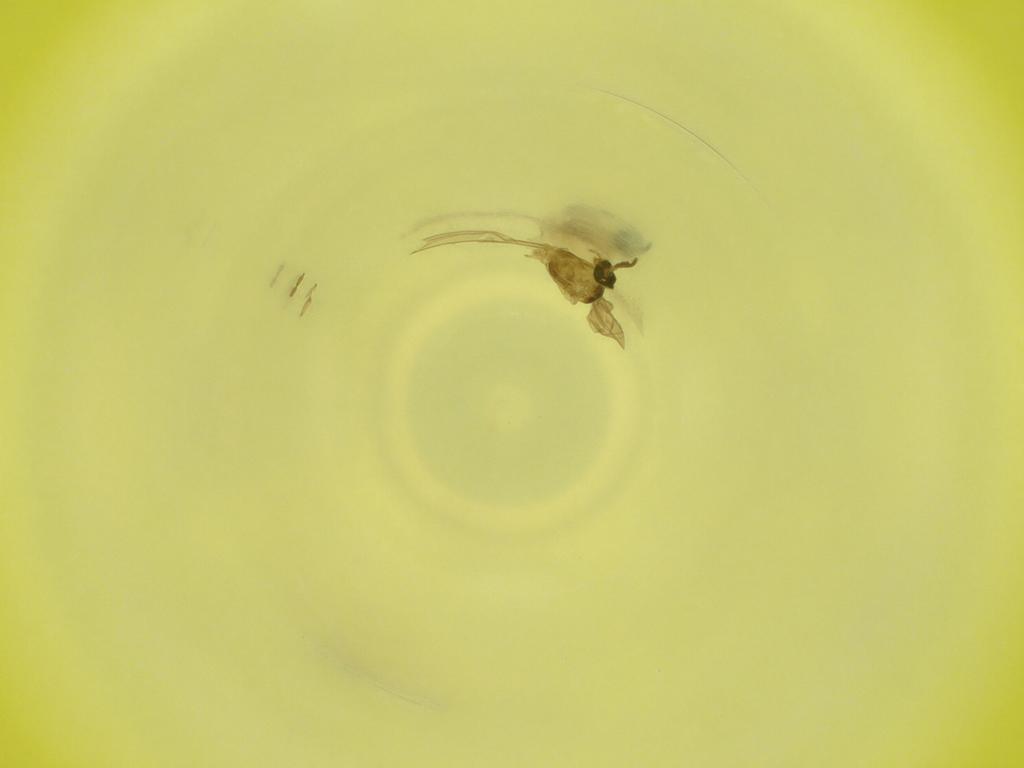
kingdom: Animalia
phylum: Arthropoda
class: Insecta
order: Diptera
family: Cecidomyiidae
